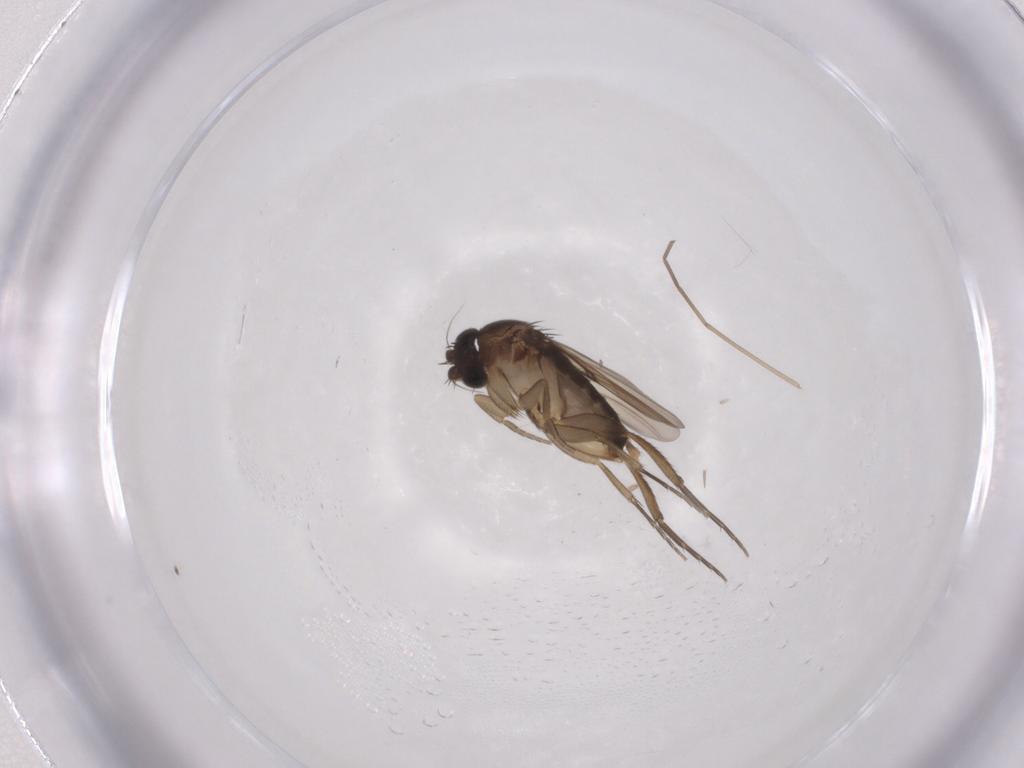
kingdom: Animalia
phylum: Arthropoda
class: Insecta
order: Diptera
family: Phoridae
